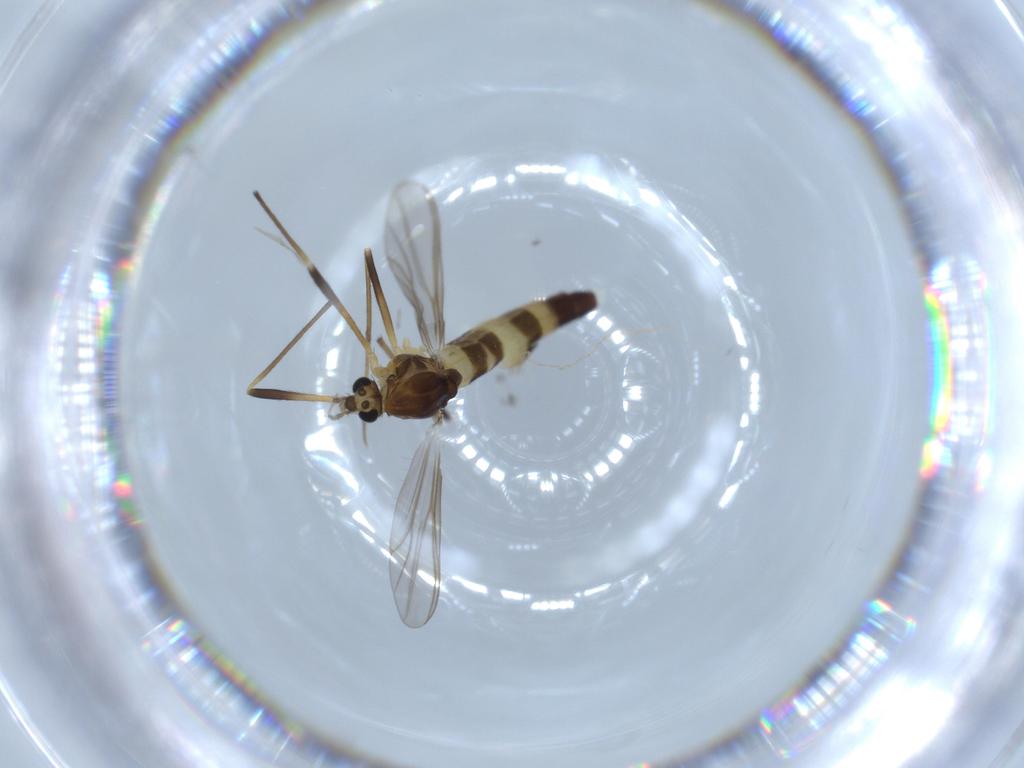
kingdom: Animalia
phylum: Arthropoda
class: Insecta
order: Diptera
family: Chironomidae
